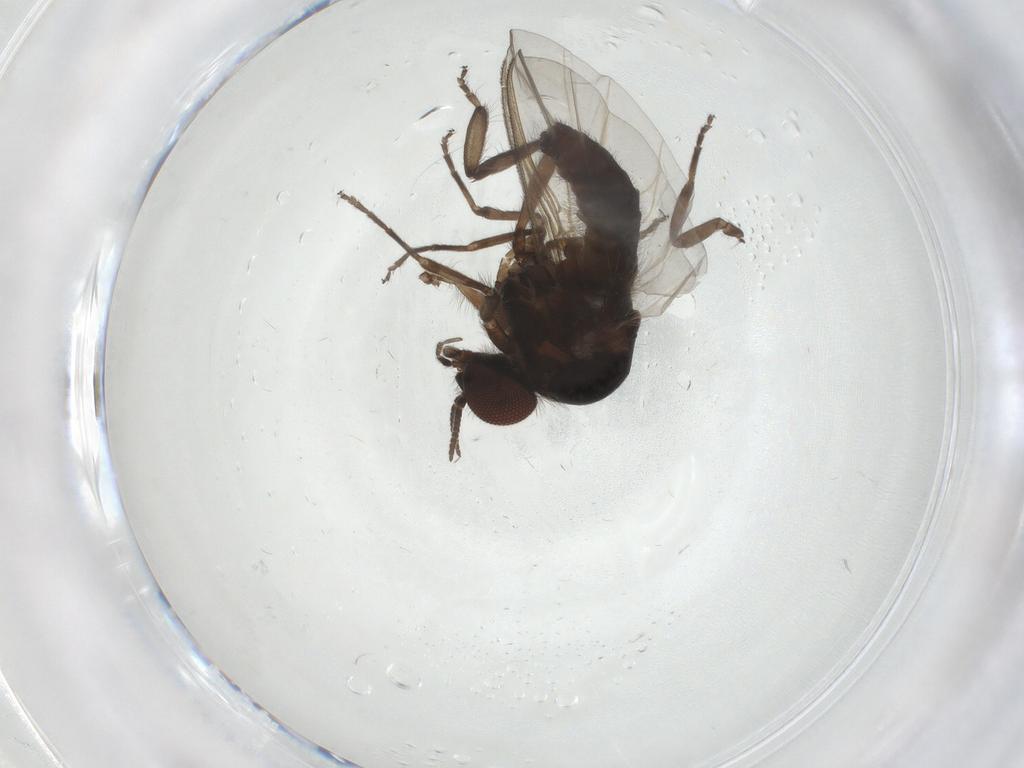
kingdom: Animalia
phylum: Arthropoda
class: Insecta
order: Diptera
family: Simuliidae
